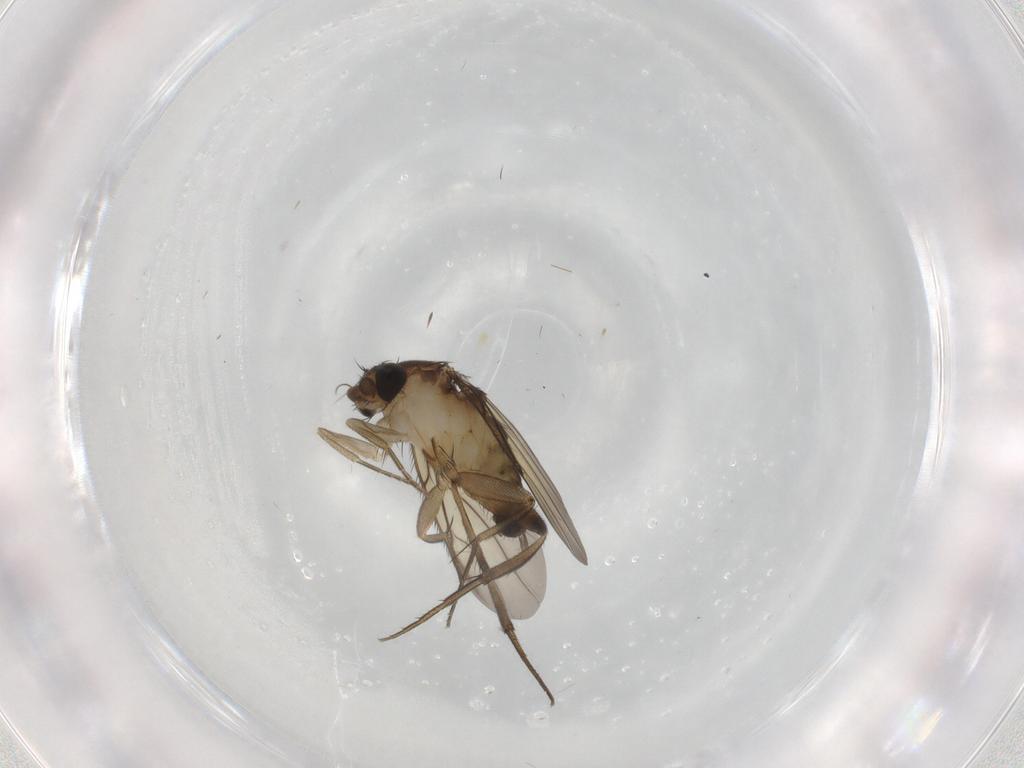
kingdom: Animalia
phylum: Arthropoda
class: Insecta
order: Diptera
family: Phoridae
